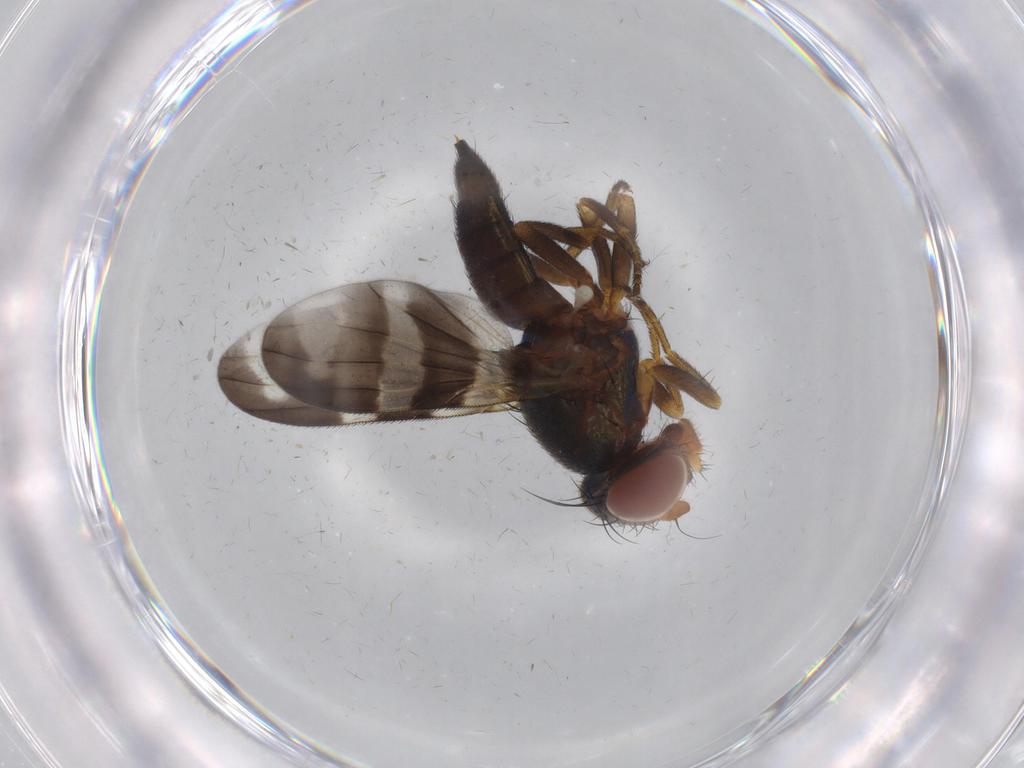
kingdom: Animalia
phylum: Arthropoda
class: Insecta
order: Diptera
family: Ulidiidae
